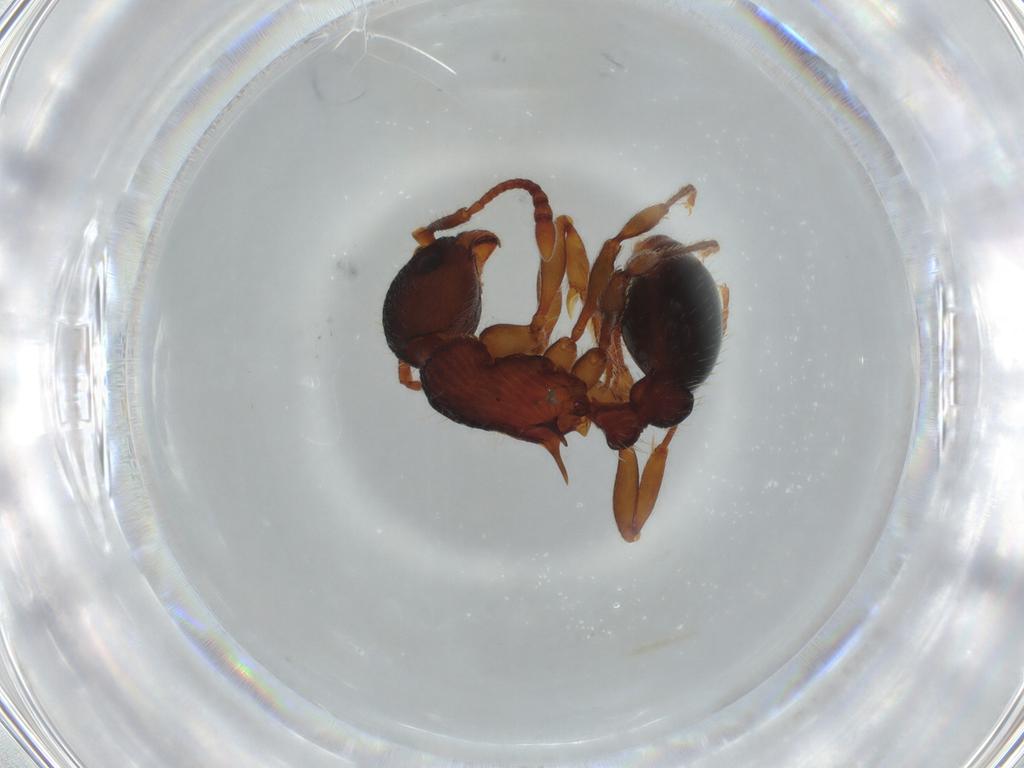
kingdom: Animalia
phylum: Arthropoda
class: Insecta
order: Hymenoptera
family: Formicidae
